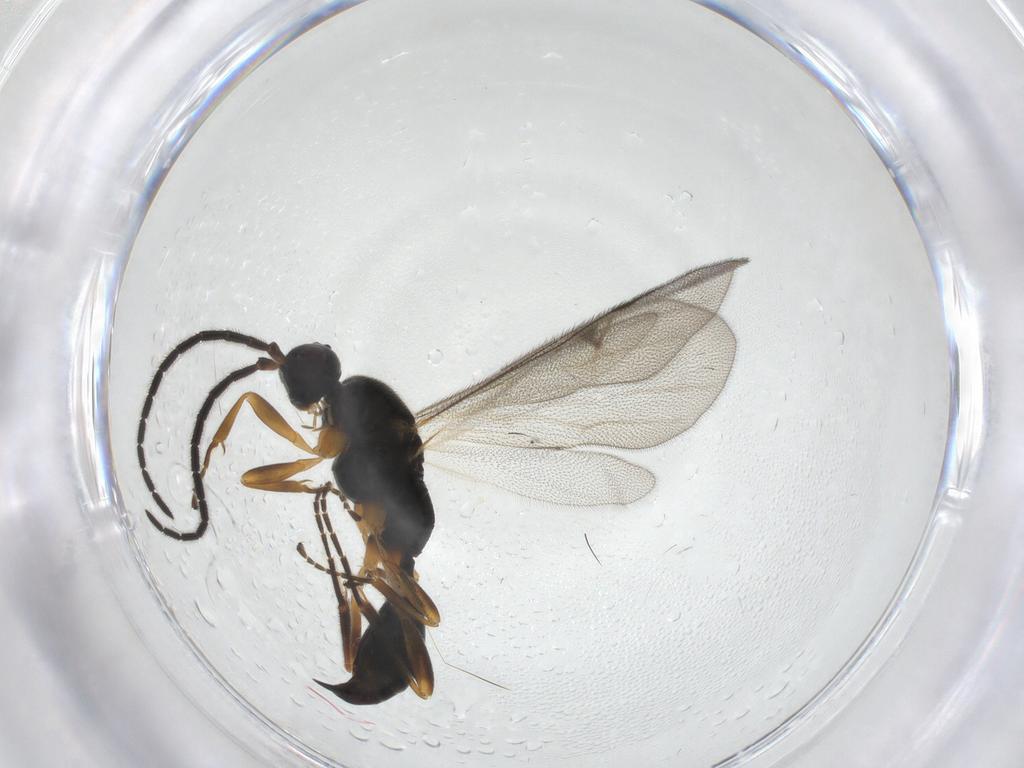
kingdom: Animalia
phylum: Arthropoda
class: Insecta
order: Hymenoptera
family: Proctotrupidae
